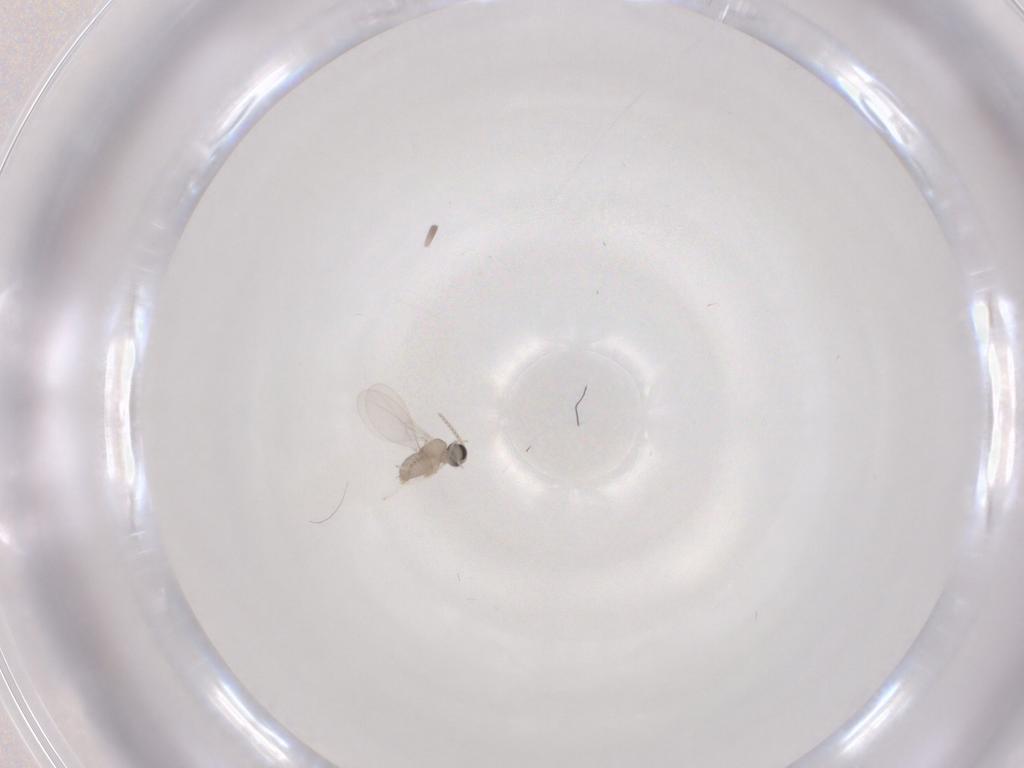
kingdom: Animalia
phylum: Arthropoda
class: Insecta
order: Diptera
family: Cecidomyiidae
